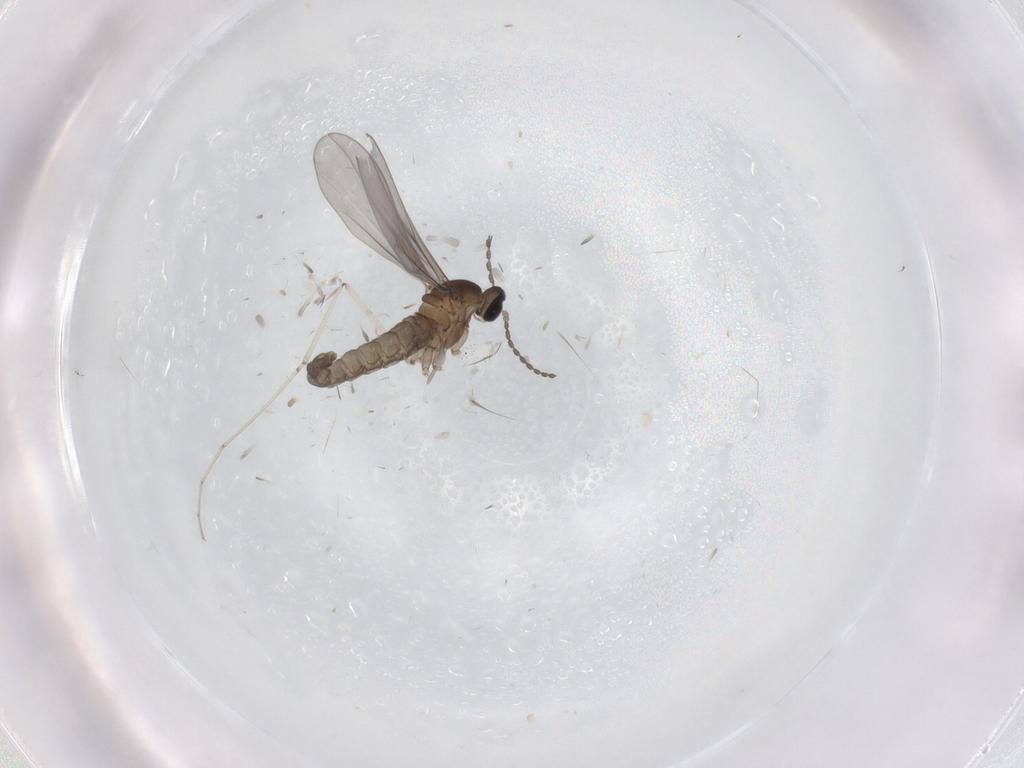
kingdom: Animalia
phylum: Arthropoda
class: Insecta
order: Diptera
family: Cecidomyiidae
